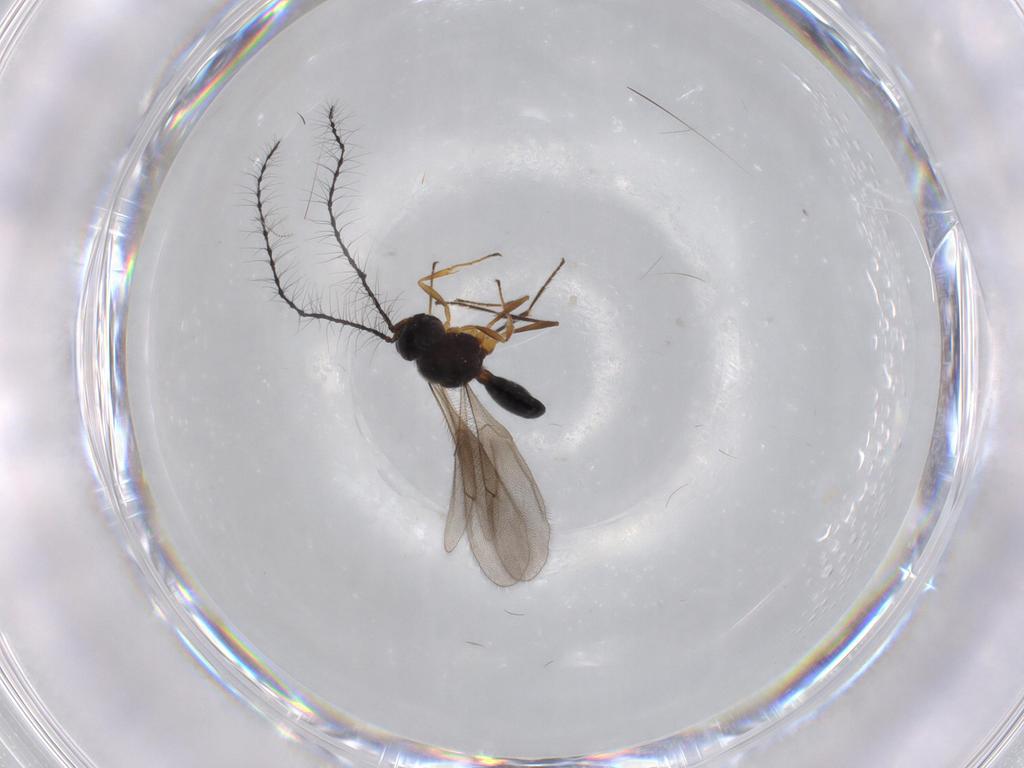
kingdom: Animalia
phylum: Arthropoda
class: Insecta
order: Hymenoptera
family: Scelionidae
